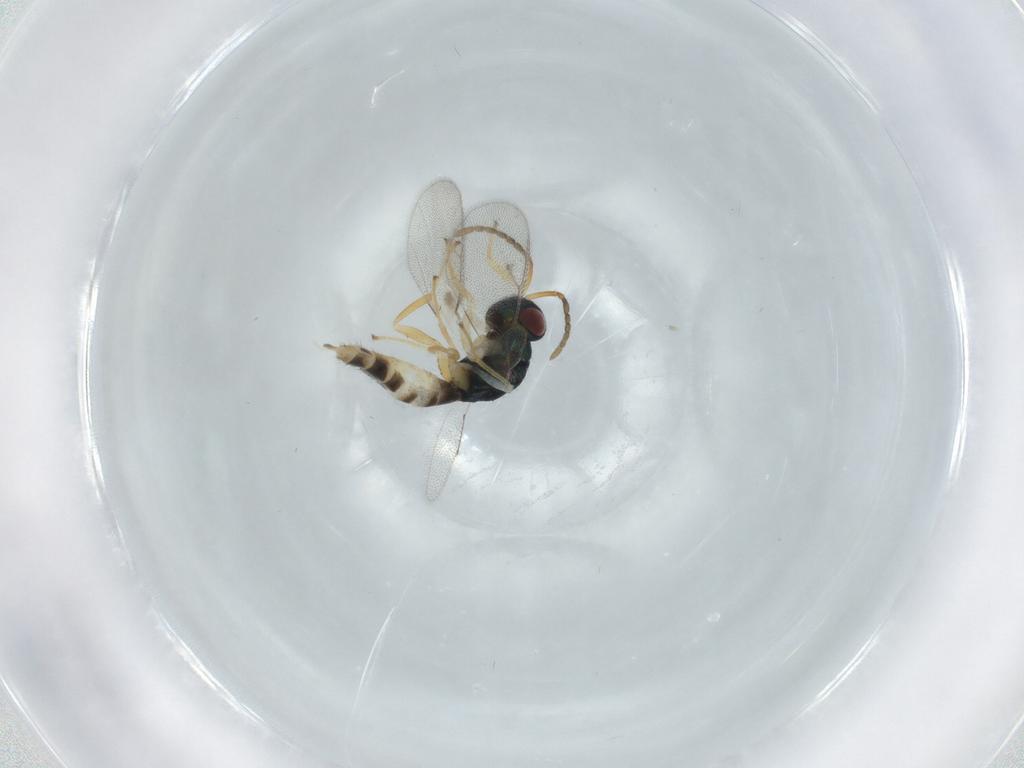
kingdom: Animalia
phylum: Arthropoda
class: Insecta
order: Hymenoptera
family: Pteromalidae
